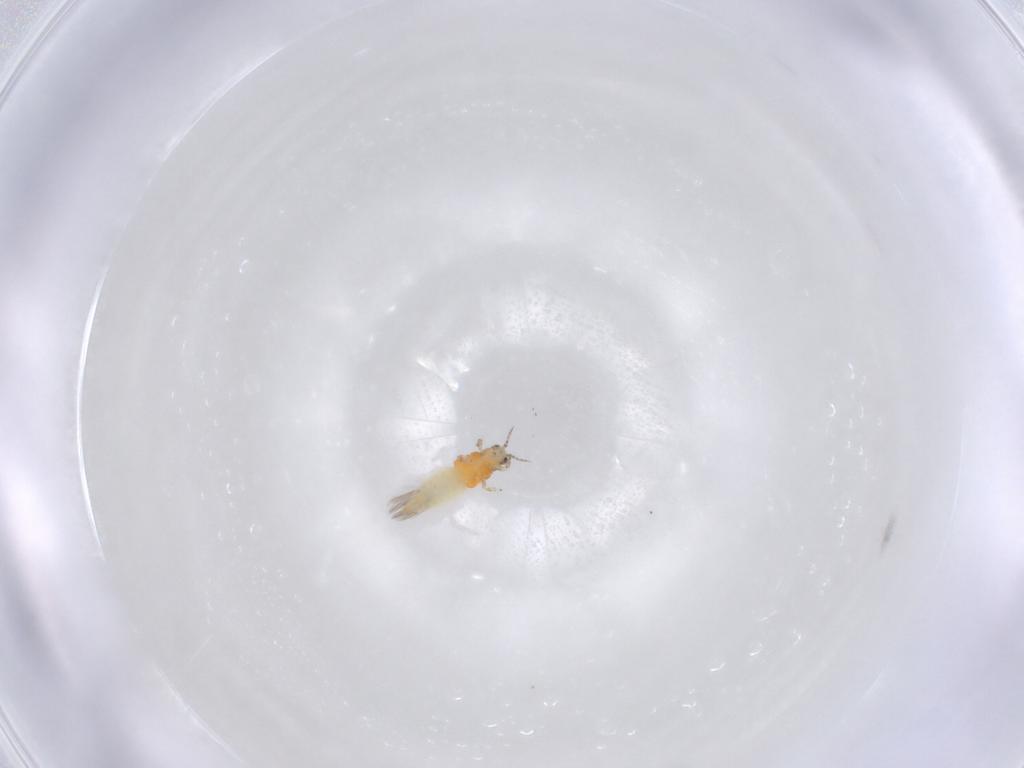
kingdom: Animalia
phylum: Arthropoda
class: Insecta
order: Thysanoptera
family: Thripidae
